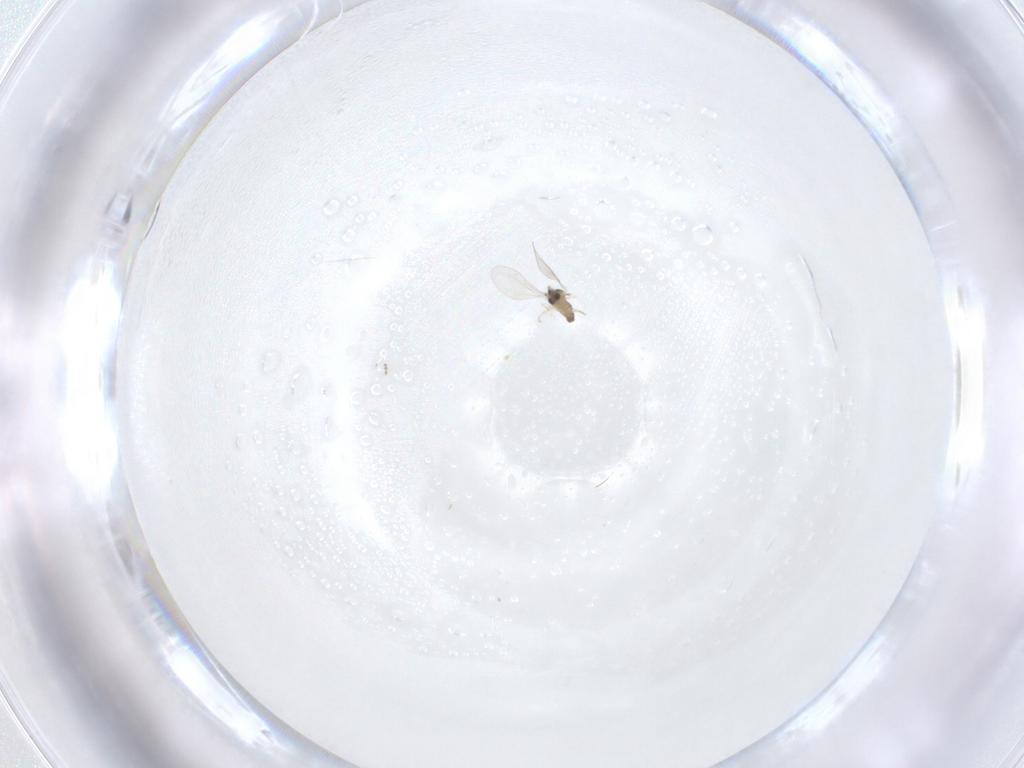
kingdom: Animalia
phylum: Arthropoda
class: Insecta
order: Diptera
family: Cecidomyiidae
